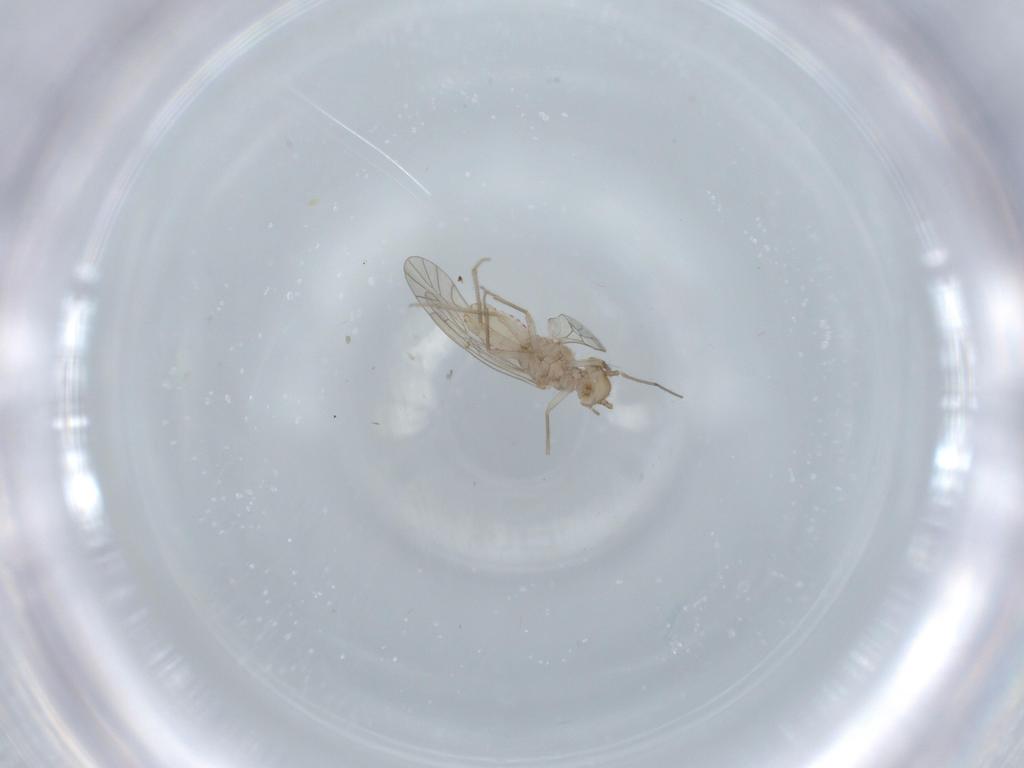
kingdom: Animalia
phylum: Arthropoda
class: Insecta
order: Psocodea
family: Lachesillidae
